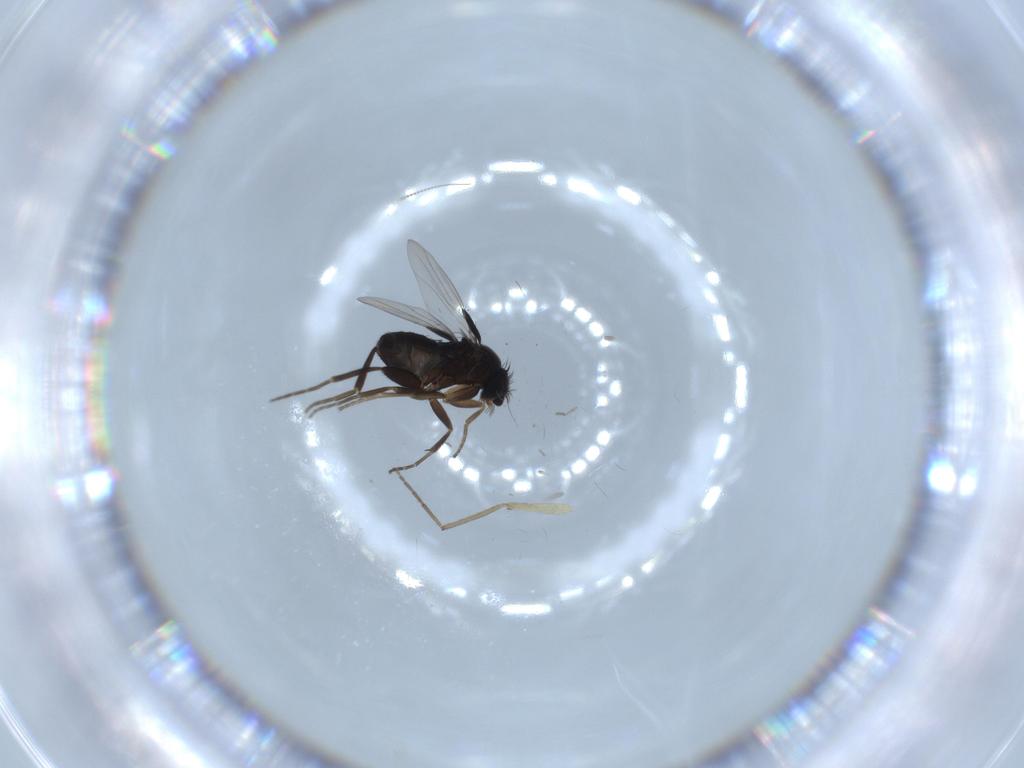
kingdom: Animalia
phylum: Arthropoda
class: Insecta
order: Diptera
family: Phoridae
